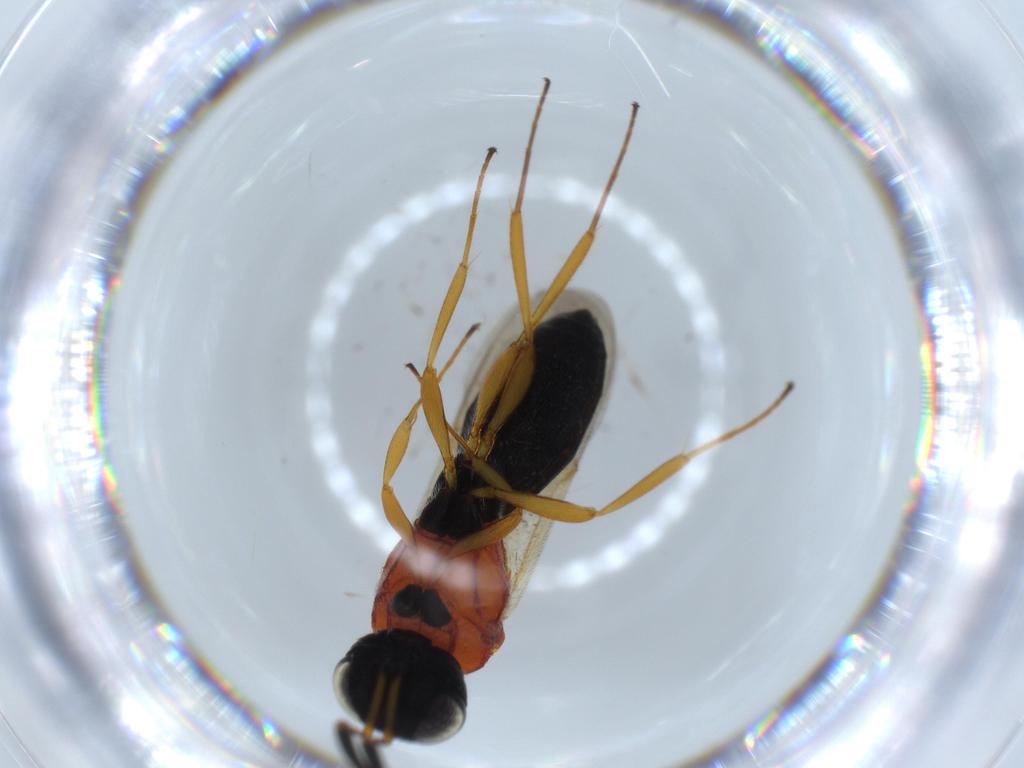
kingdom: Animalia
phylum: Arthropoda
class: Insecta
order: Hymenoptera
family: Scelionidae
